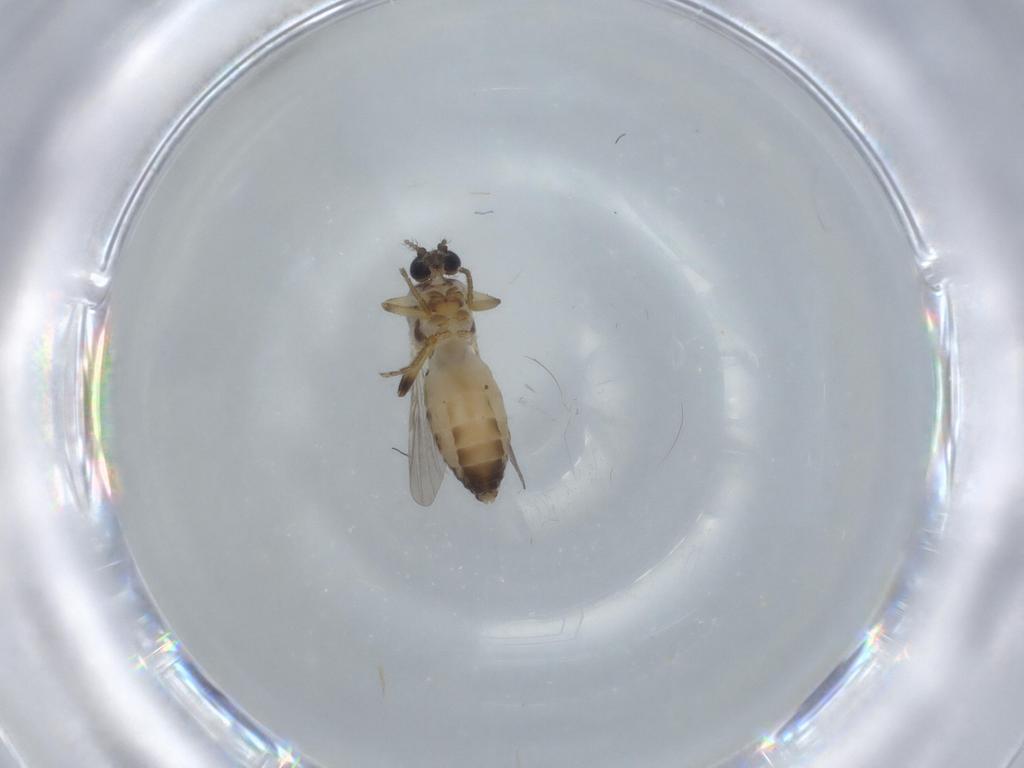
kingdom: Animalia
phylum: Arthropoda
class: Insecta
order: Diptera
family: Ceratopogonidae
